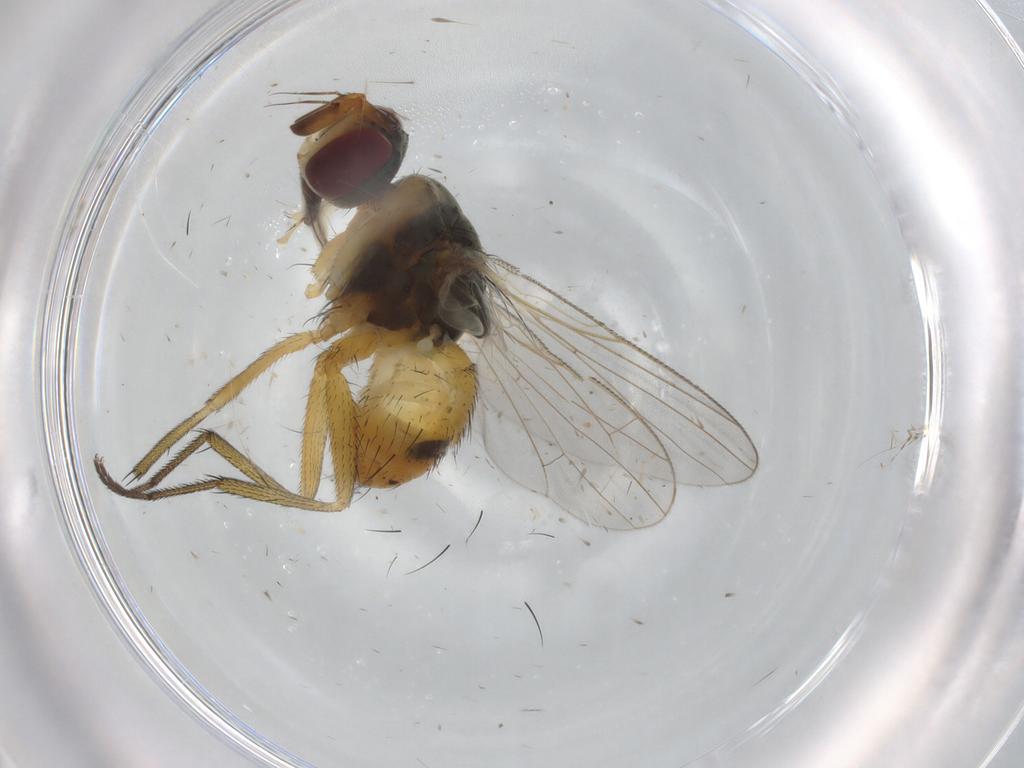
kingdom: Animalia
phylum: Arthropoda
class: Insecta
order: Diptera
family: Muscidae
